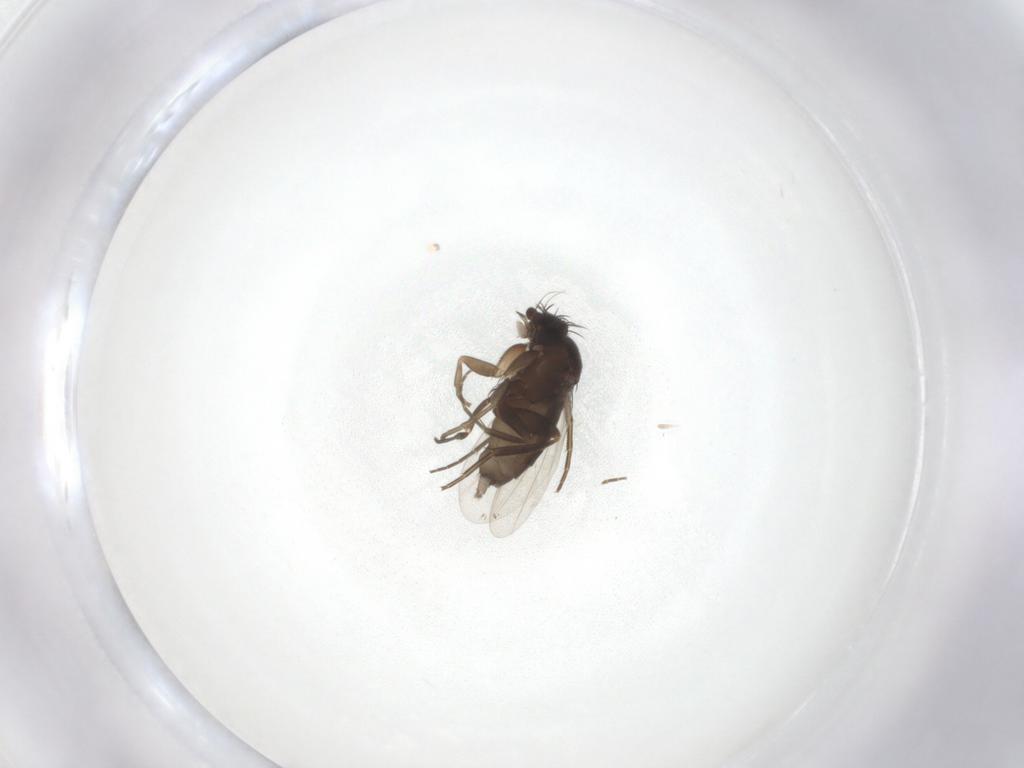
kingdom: Animalia
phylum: Arthropoda
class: Insecta
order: Diptera
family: Phoridae
